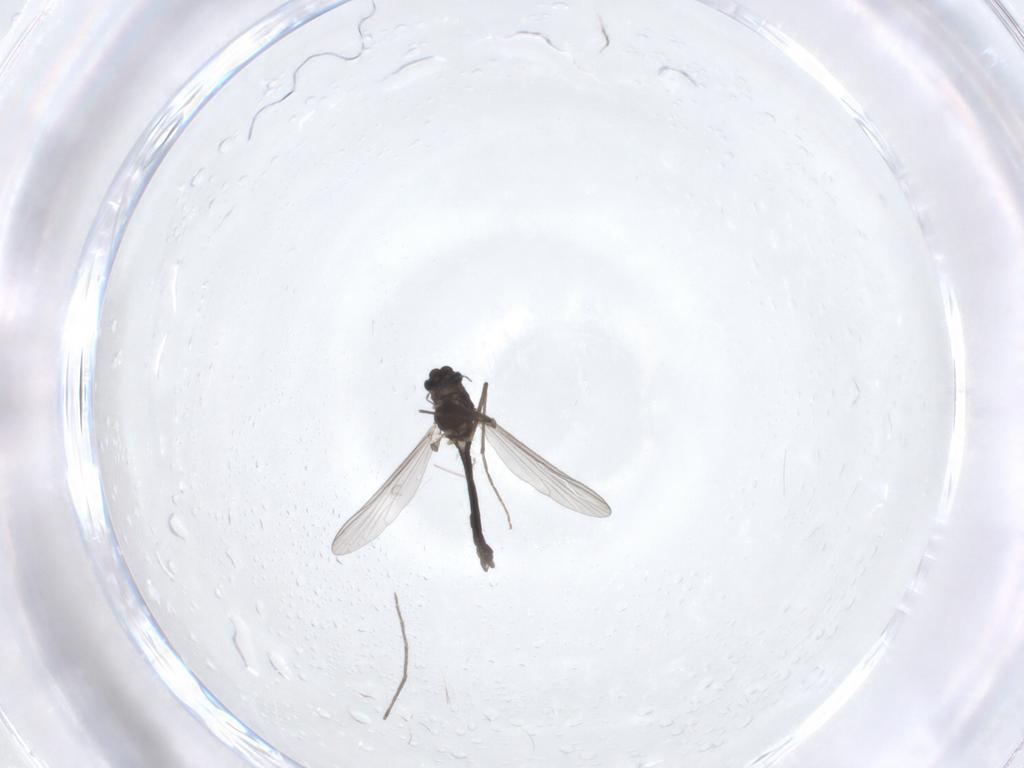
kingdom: Animalia
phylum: Arthropoda
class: Insecta
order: Diptera
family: Chironomidae
